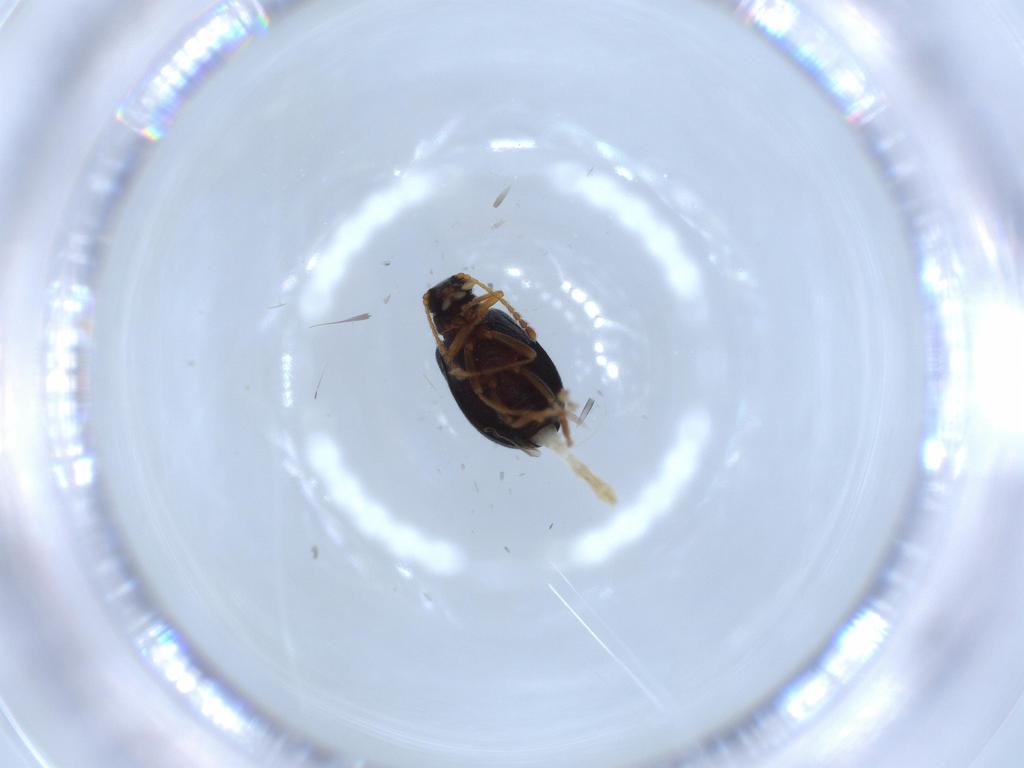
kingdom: Animalia
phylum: Arthropoda
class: Insecta
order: Coleoptera
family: Aderidae
